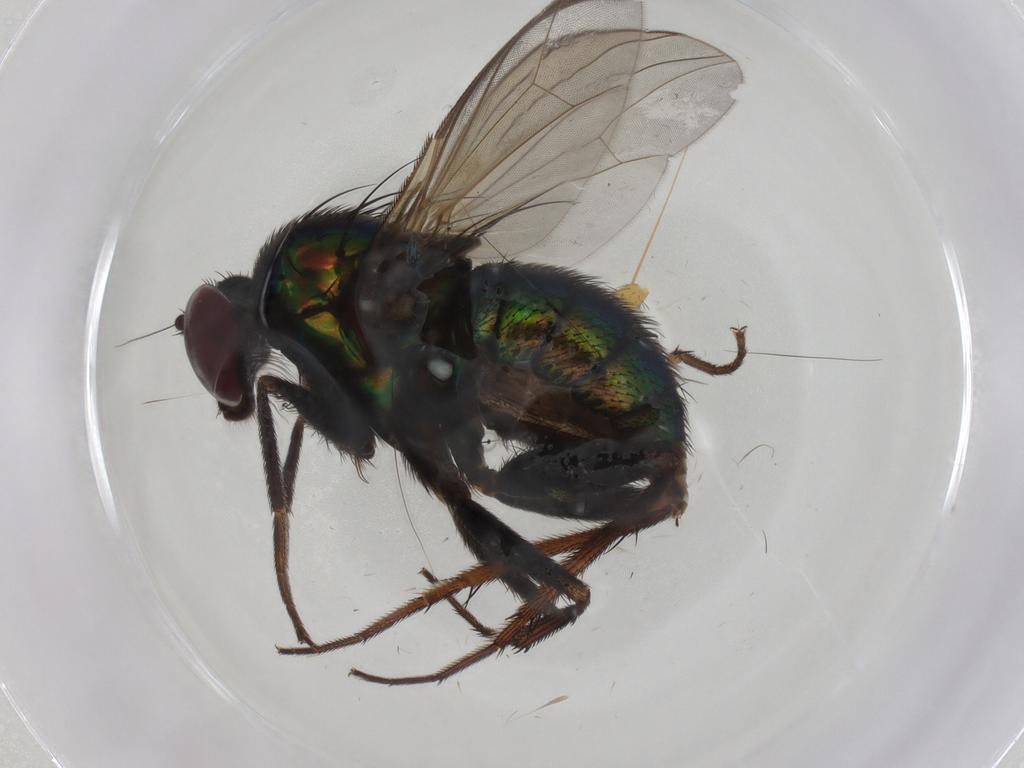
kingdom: Animalia
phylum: Arthropoda
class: Insecta
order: Diptera
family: Dolichopodidae
